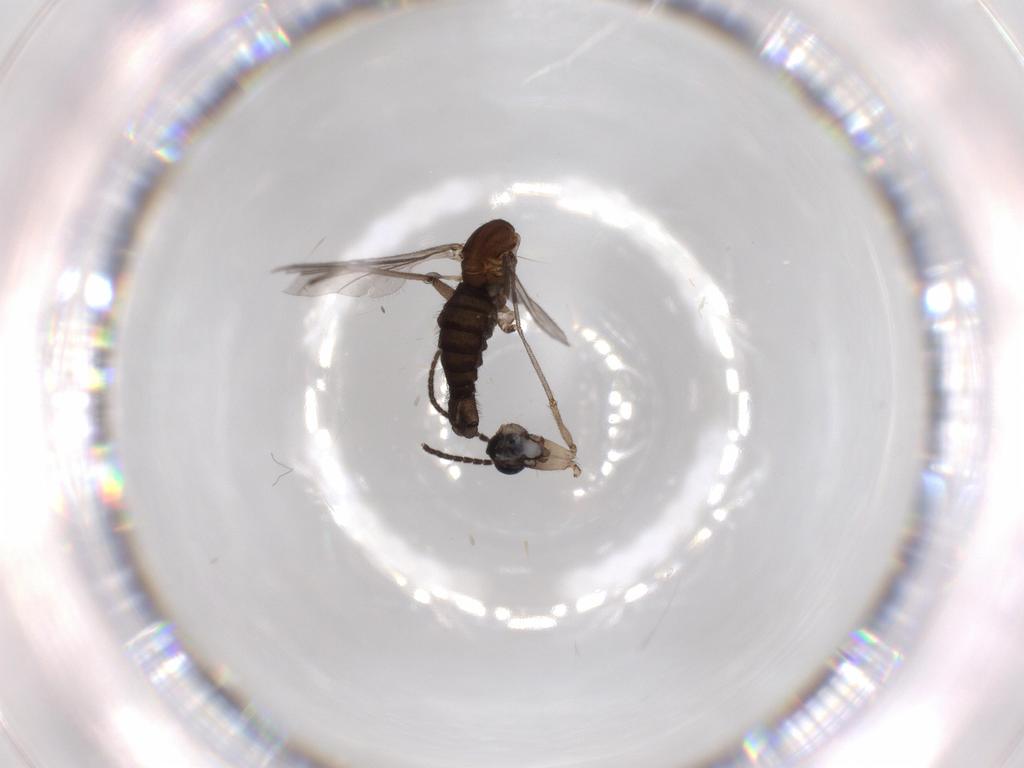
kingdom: Animalia
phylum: Arthropoda
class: Insecta
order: Diptera
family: Sciaridae
